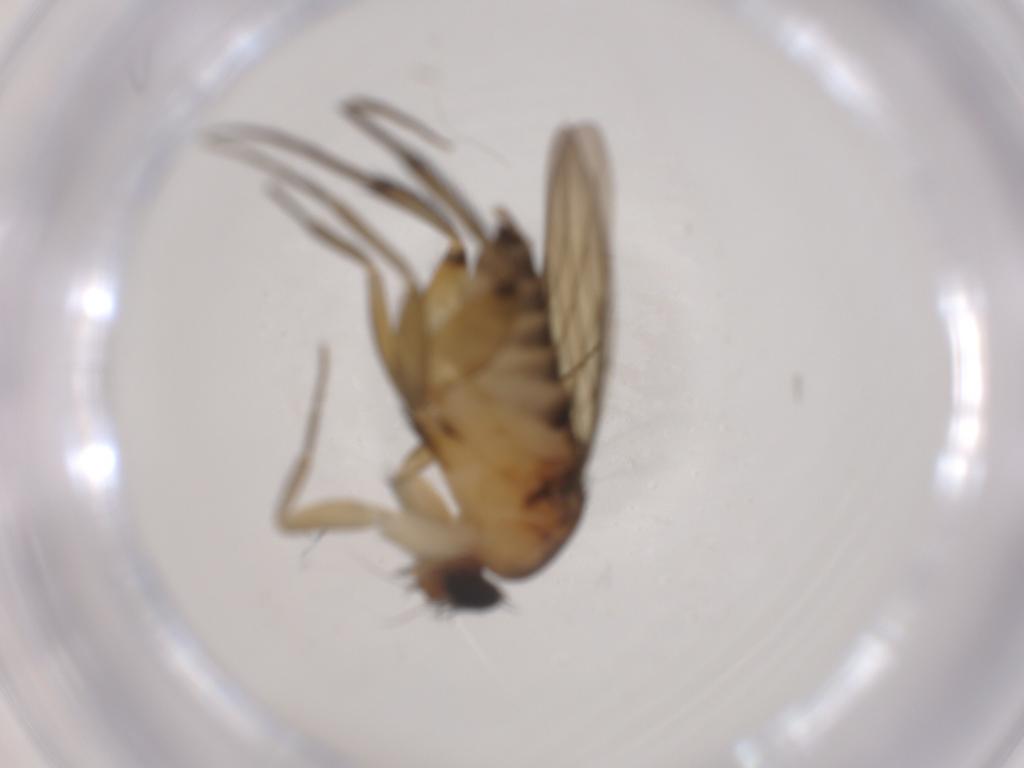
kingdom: Animalia
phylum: Arthropoda
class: Insecta
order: Diptera
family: Phoridae
